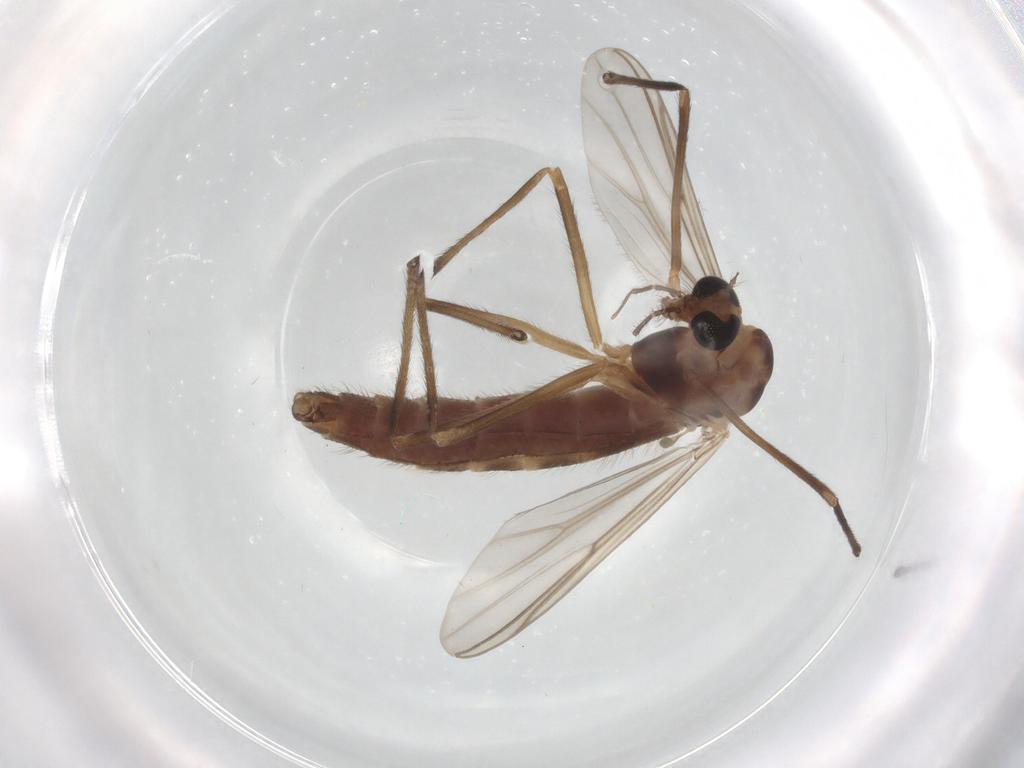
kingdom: Animalia
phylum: Arthropoda
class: Insecta
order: Diptera
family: Chironomidae
